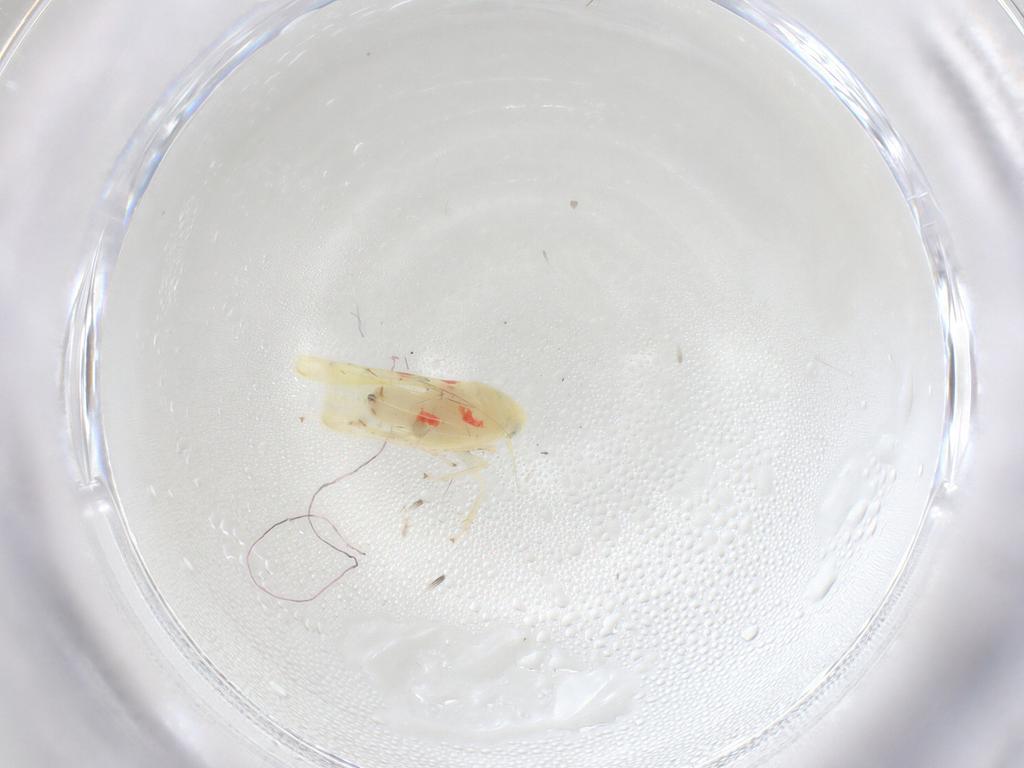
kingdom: Animalia
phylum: Arthropoda
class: Insecta
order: Hemiptera
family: Cicadellidae
